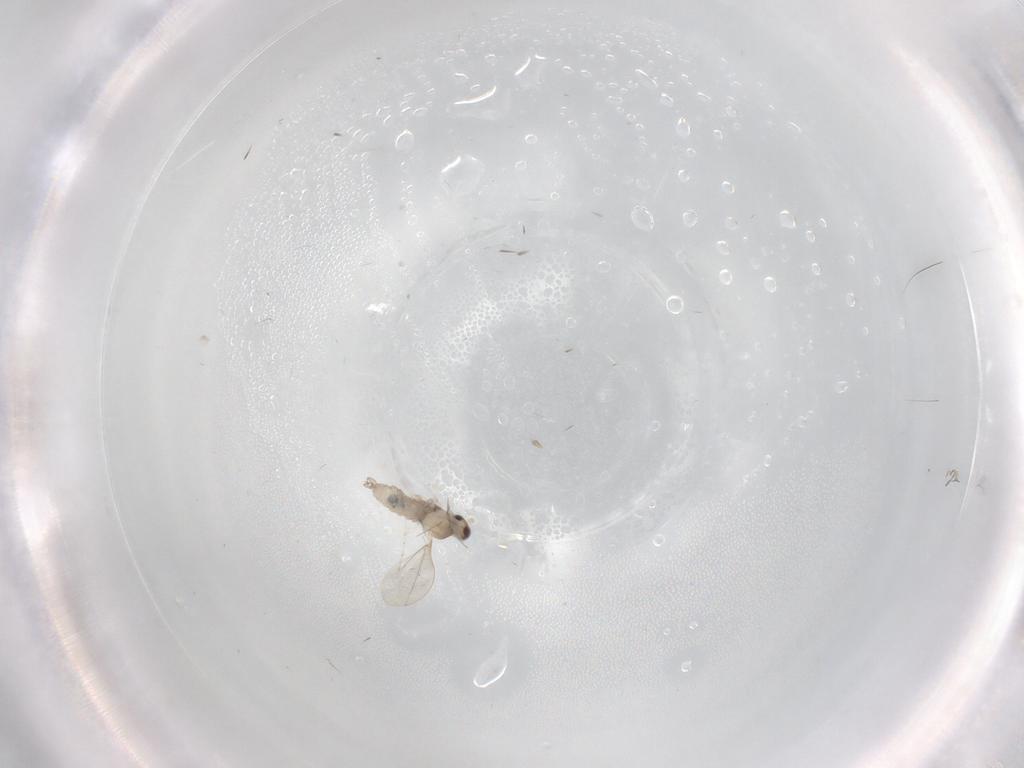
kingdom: Animalia
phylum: Arthropoda
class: Insecta
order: Diptera
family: Cecidomyiidae
